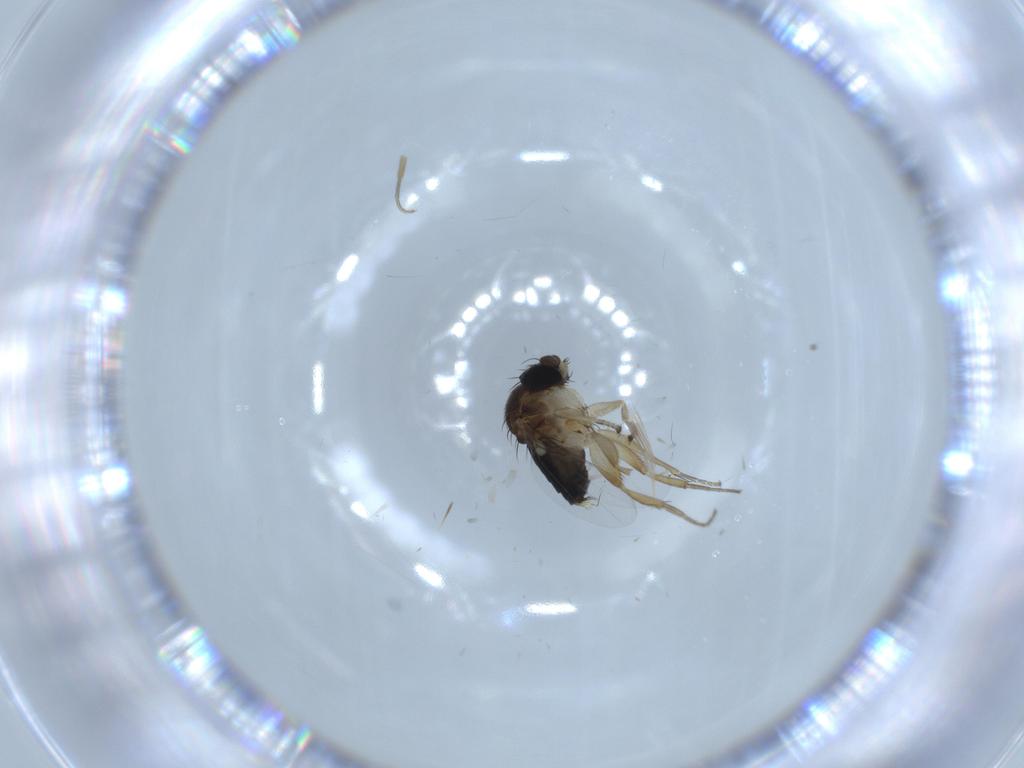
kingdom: Animalia
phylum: Arthropoda
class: Insecta
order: Diptera
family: Phoridae
